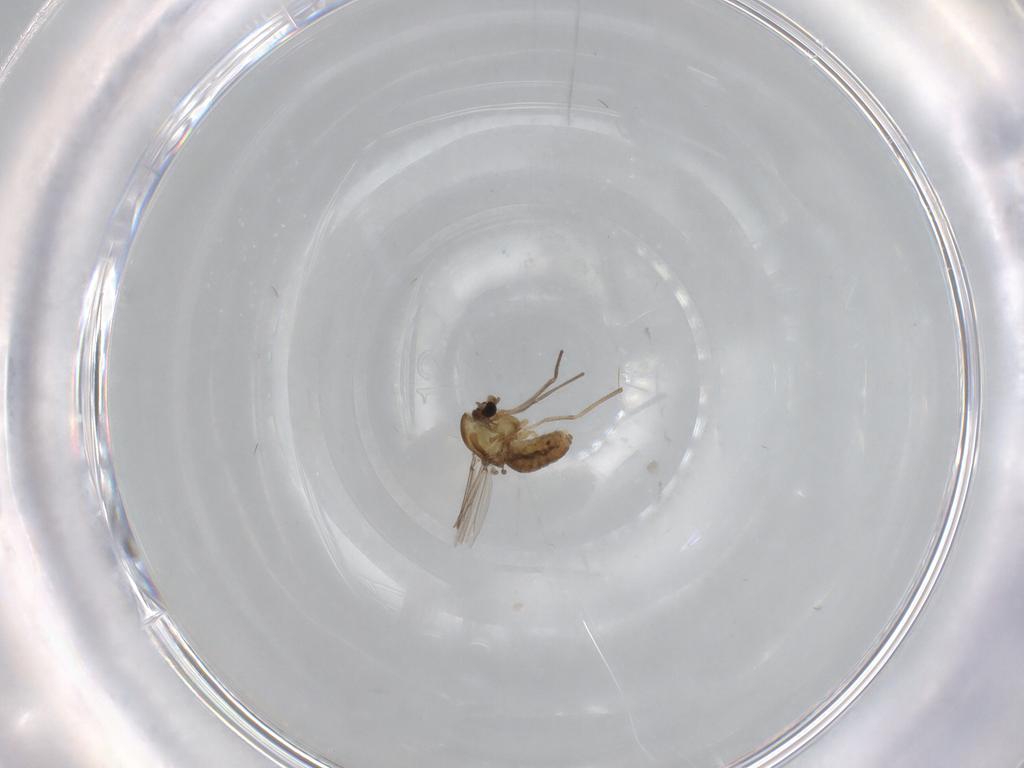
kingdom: Animalia
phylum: Arthropoda
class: Insecta
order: Diptera
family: Chironomidae
